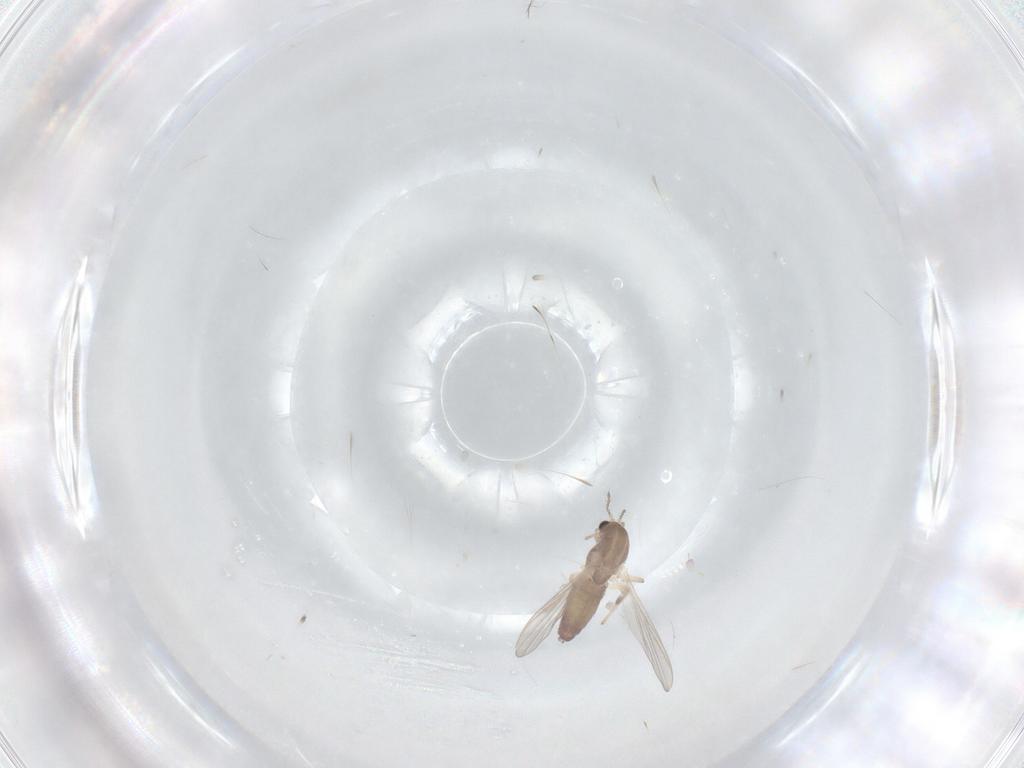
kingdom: Animalia
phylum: Arthropoda
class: Insecta
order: Diptera
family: Chironomidae
